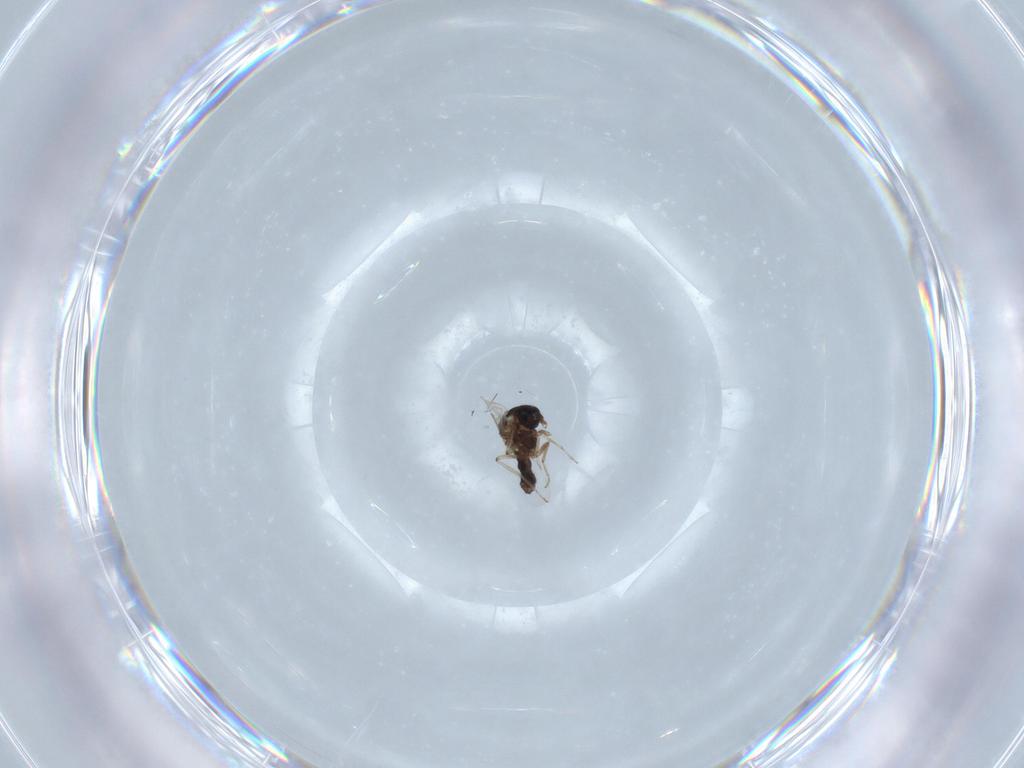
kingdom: Animalia
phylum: Arthropoda
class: Insecta
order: Diptera
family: Ceratopogonidae
